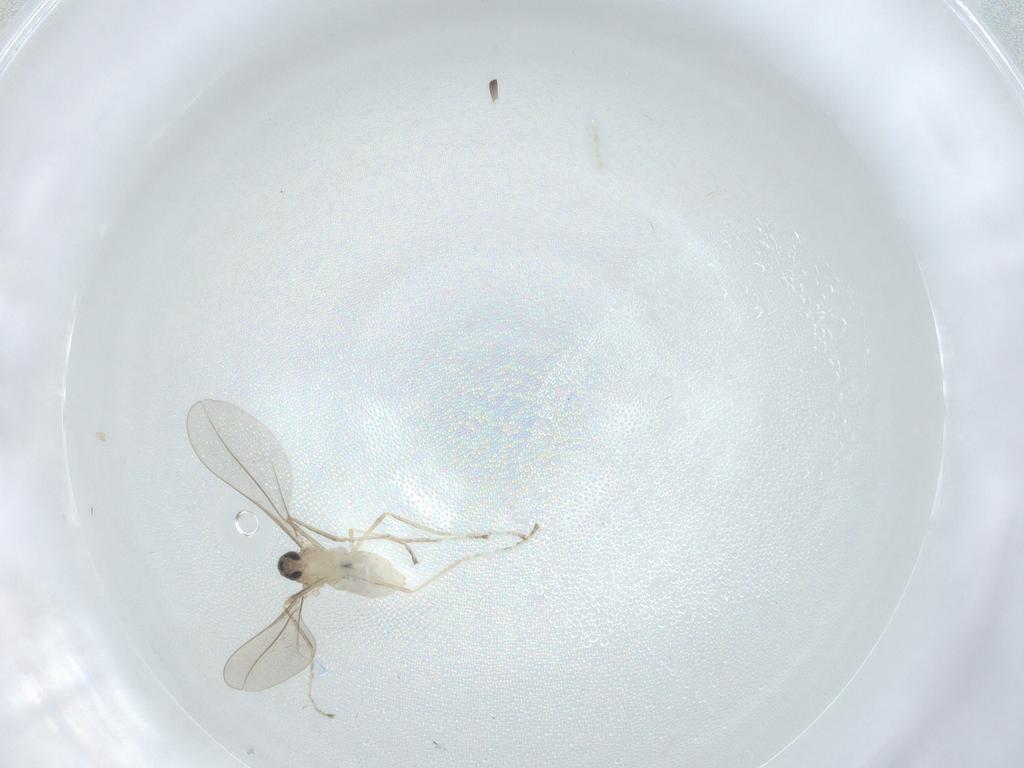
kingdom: Animalia
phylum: Arthropoda
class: Insecta
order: Diptera
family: Cecidomyiidae
